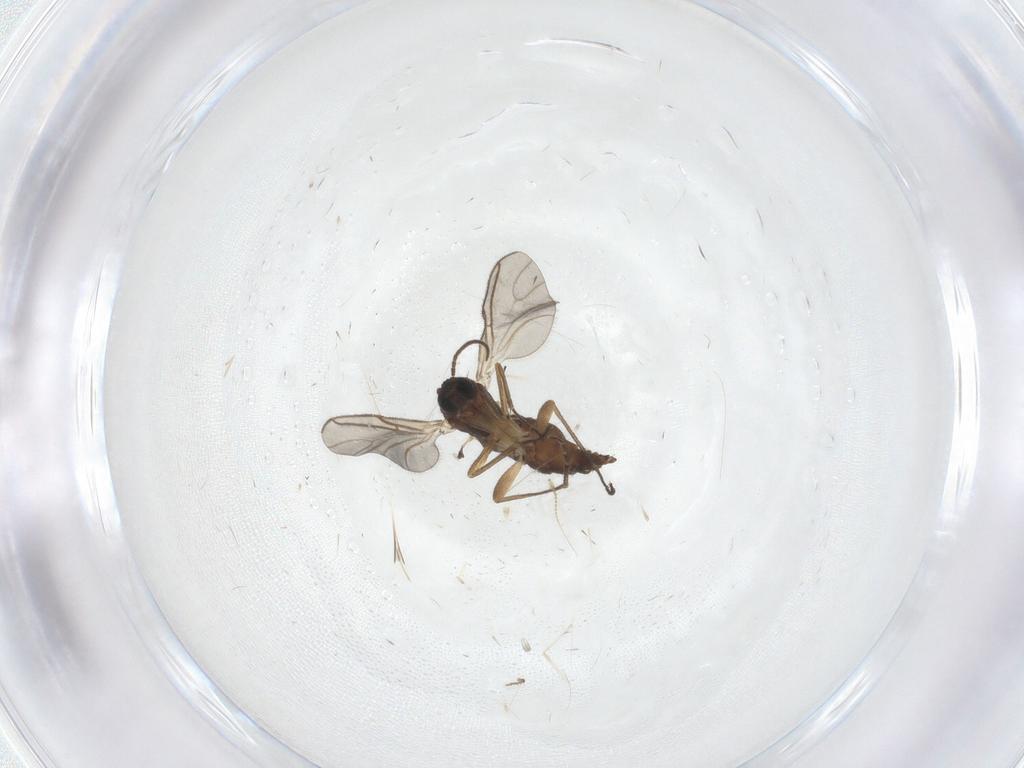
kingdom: Animalia
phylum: Arthropoda
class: Insecta
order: Diptera
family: Sciaridae
